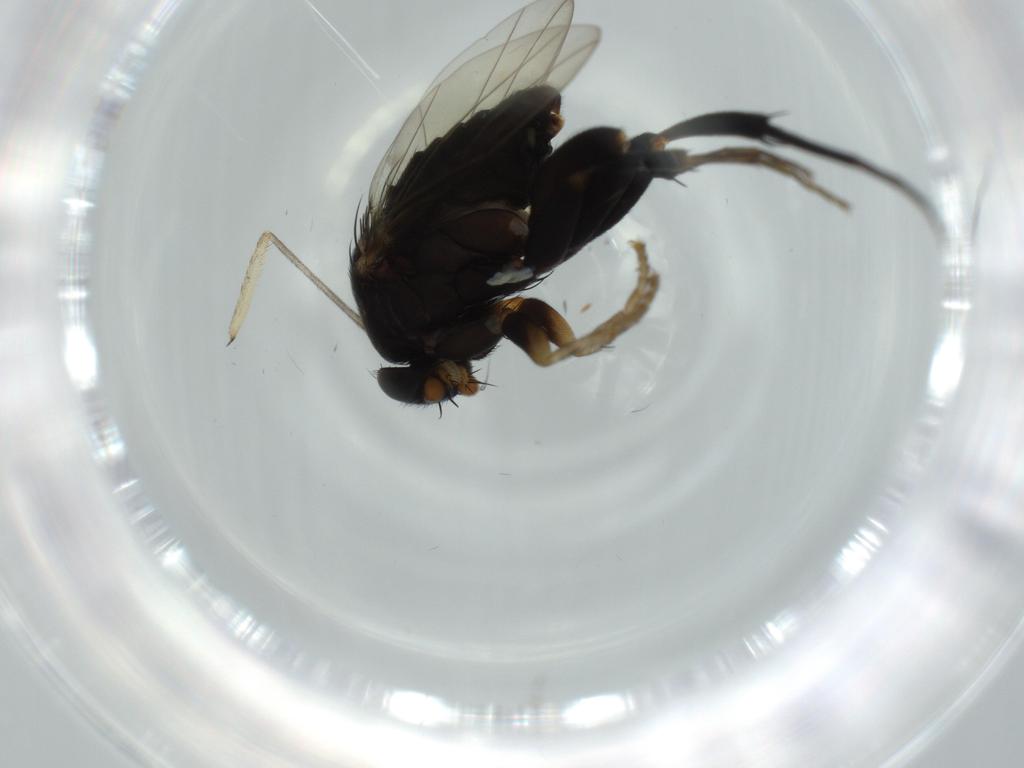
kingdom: Animalia
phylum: Arthropoda
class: Insecta
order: Diptera
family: Phoridae
